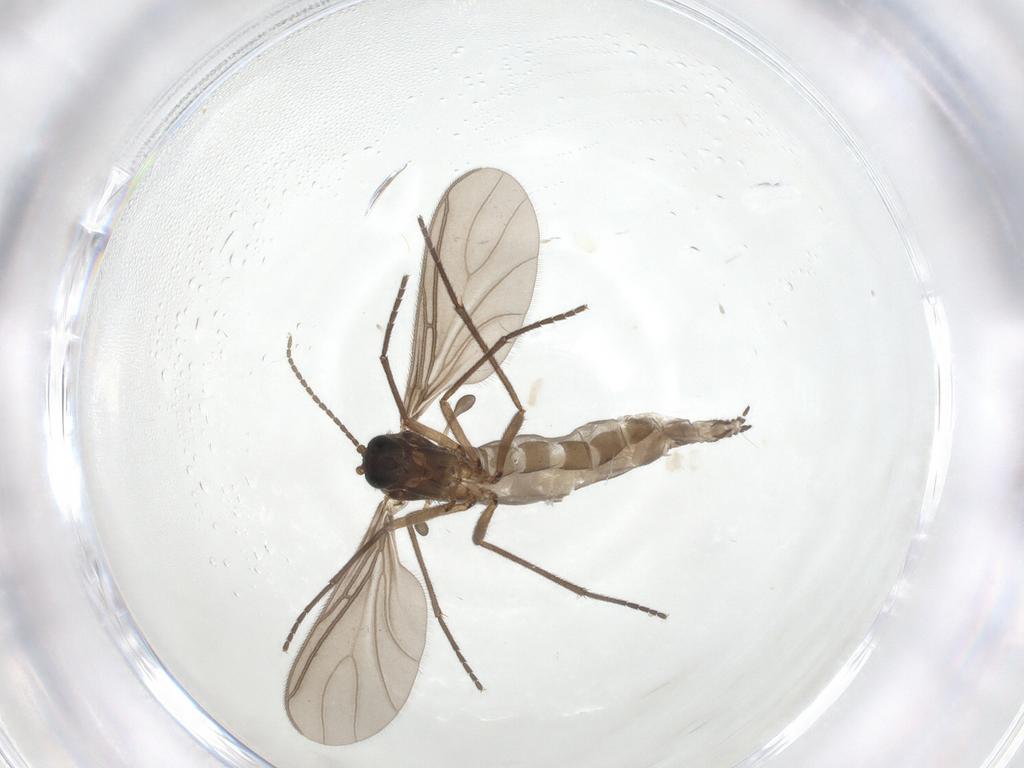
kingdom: Animalia
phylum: Arthropoda
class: Insecta
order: Diptera
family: Sciaridae
